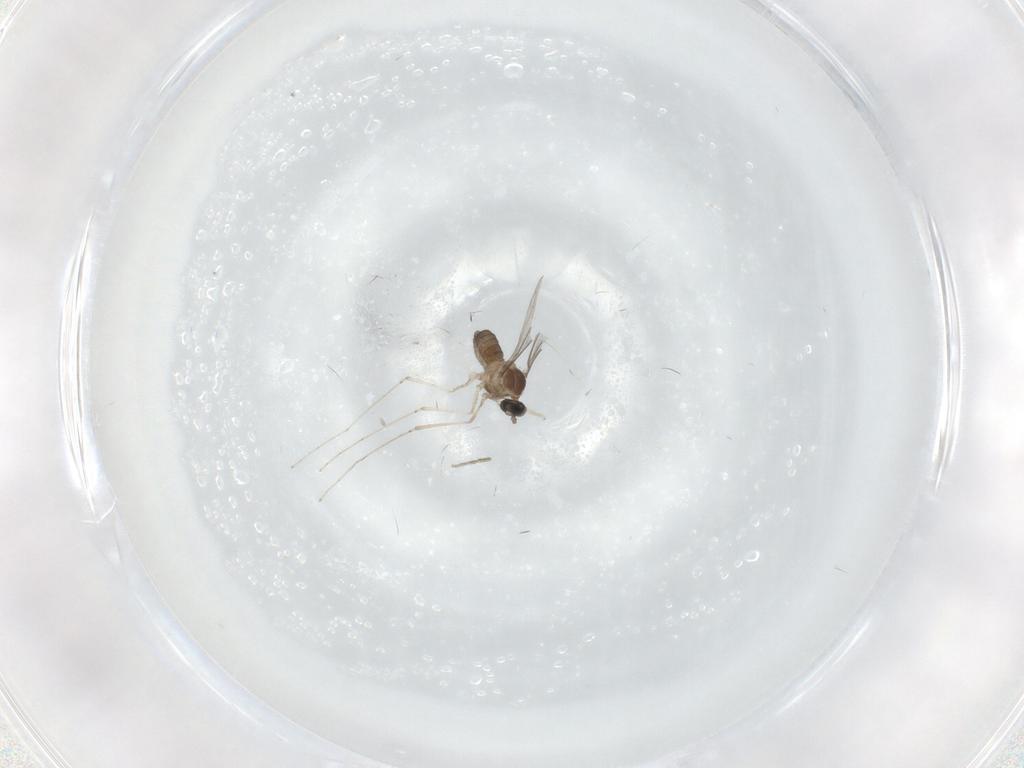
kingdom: Animalia
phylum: Arthropoda
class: Insecta
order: Diptera
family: Cecidomyiidae
